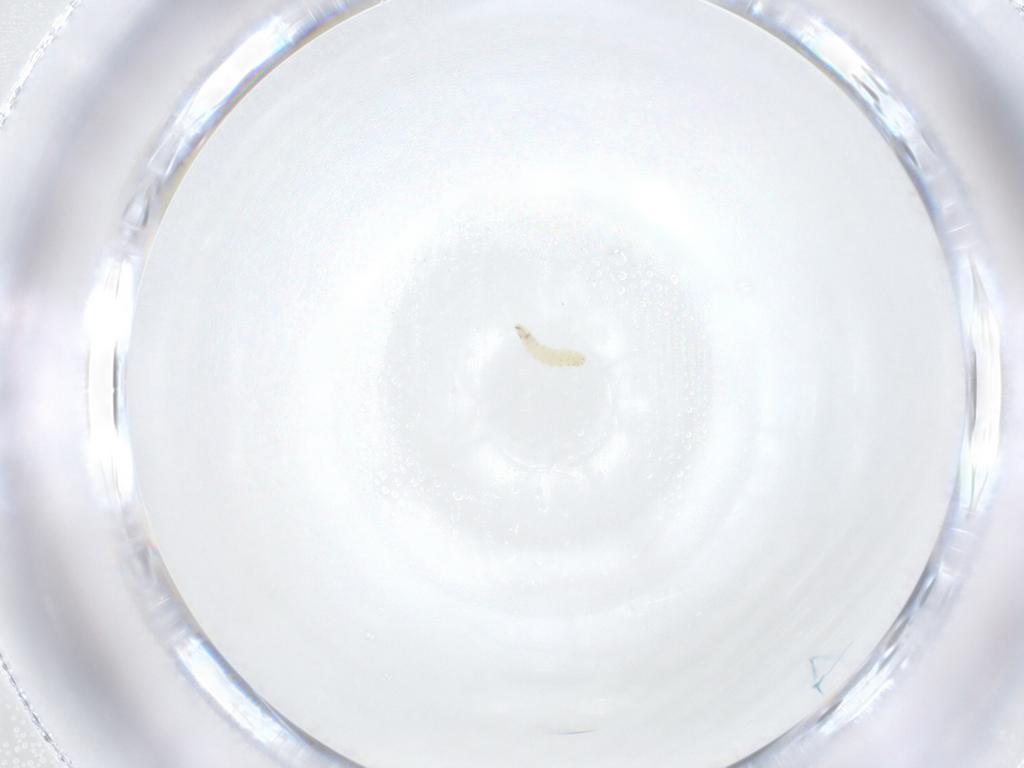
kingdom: Animalia
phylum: Arthropoda
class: Insecta
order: Diptera
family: Sarcophagidae
